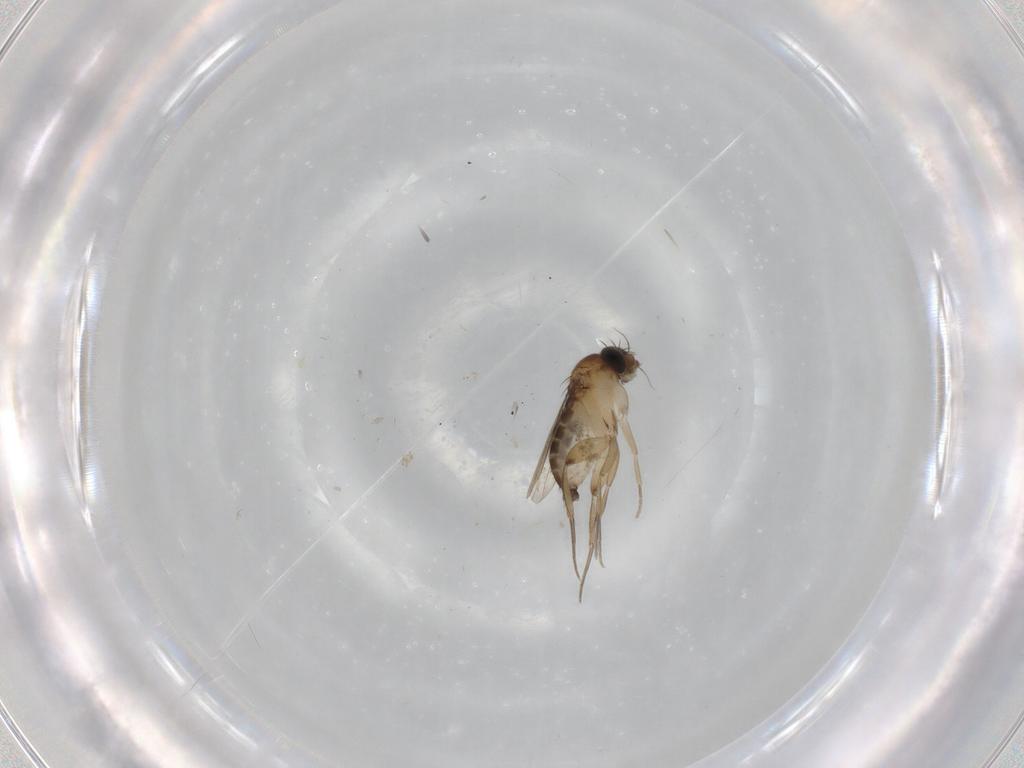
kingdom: Animalia
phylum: Arthropoda
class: Insecta
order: Diptera
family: Phoridae
